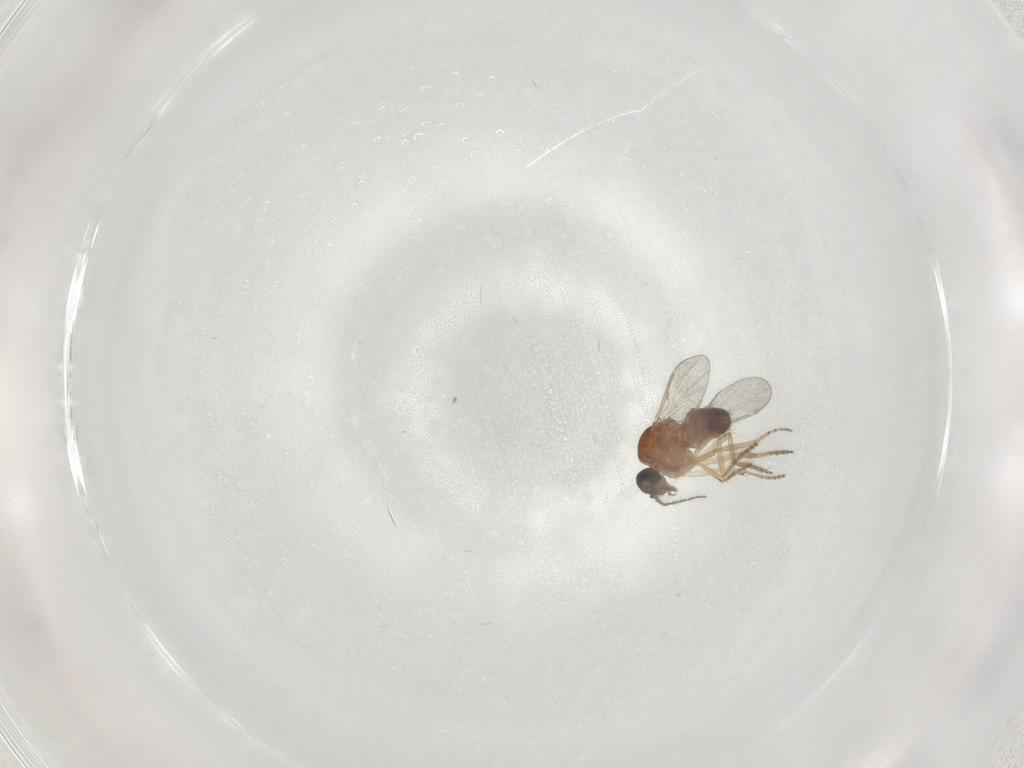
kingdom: Animalia
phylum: Arthropoda
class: Insecta
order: Diptera
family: Ceratopogonidae
